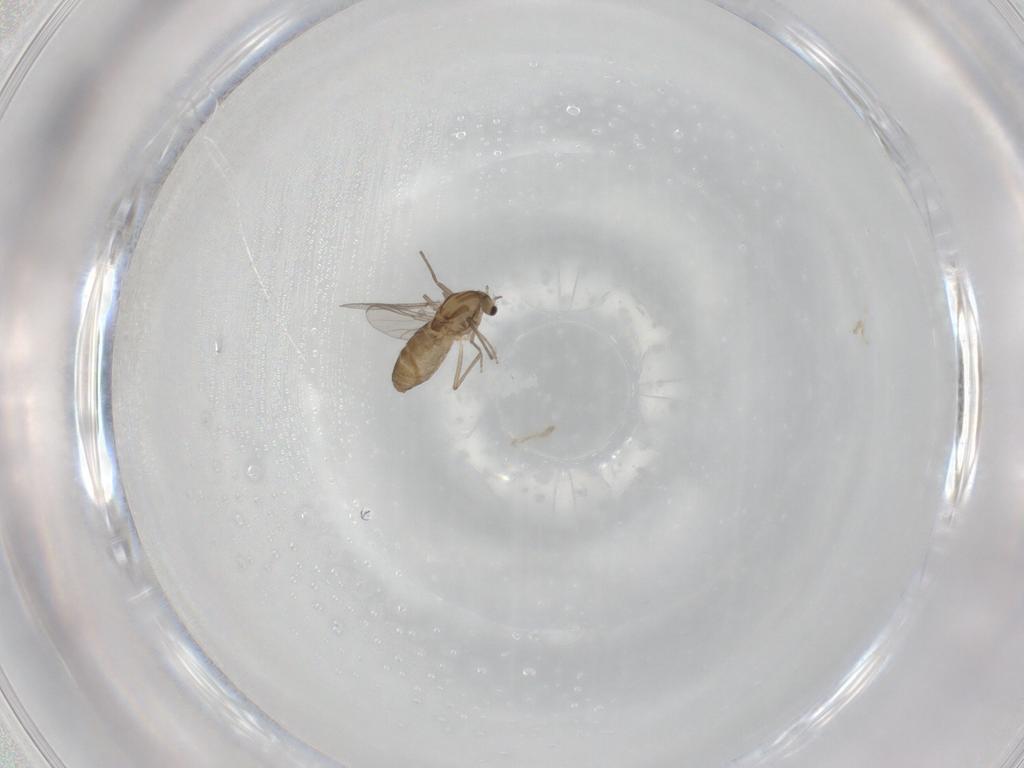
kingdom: Animalia
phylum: Arthropoda
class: Insecta
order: Diptera
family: Chironomidae
